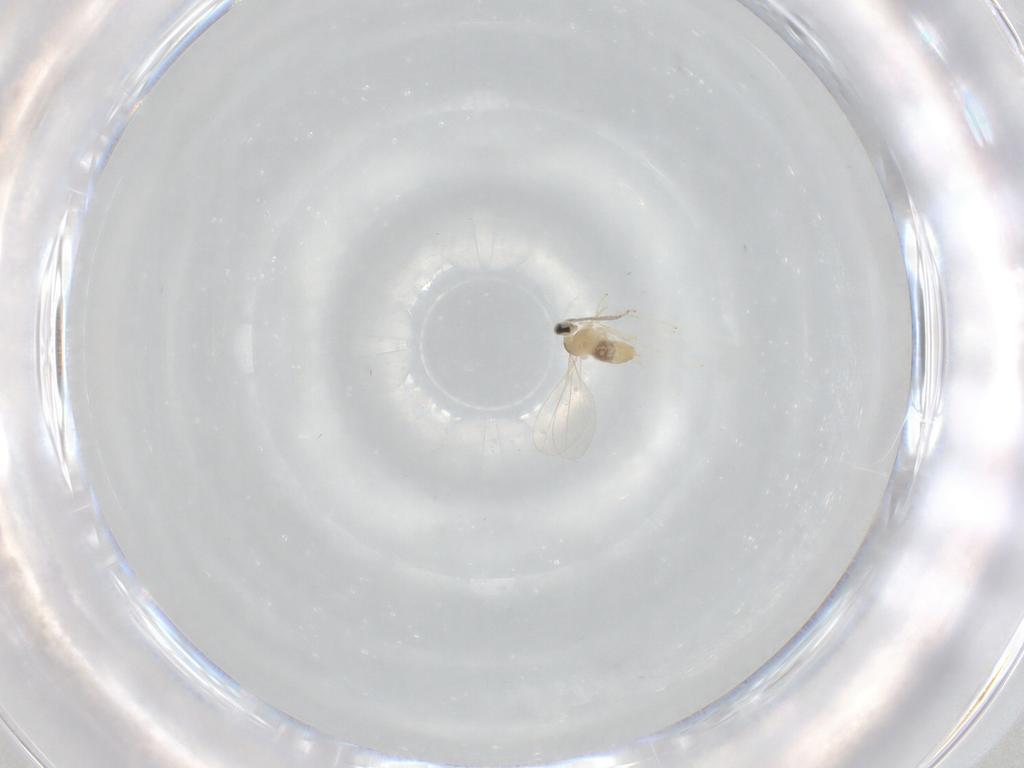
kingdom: Animalia
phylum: Arthropoda
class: Insecta
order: Diptera
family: Cecidomyiidae
